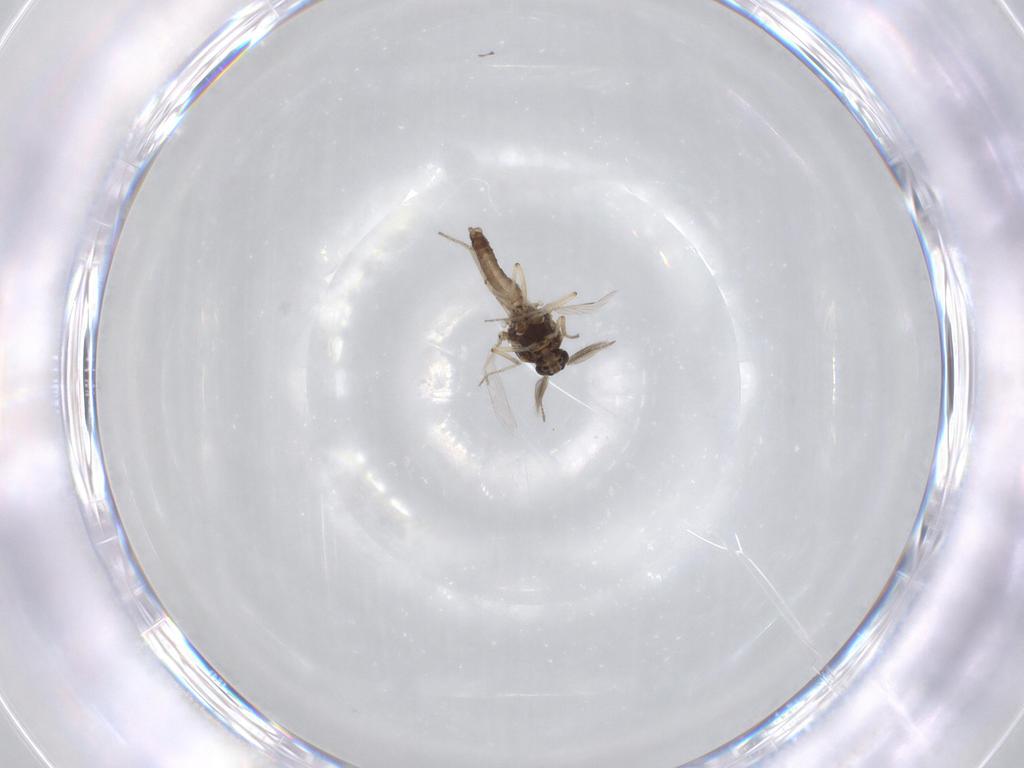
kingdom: Animalia
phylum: Arthropoda
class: Insecta
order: Diptera
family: Ceratopogonidae
